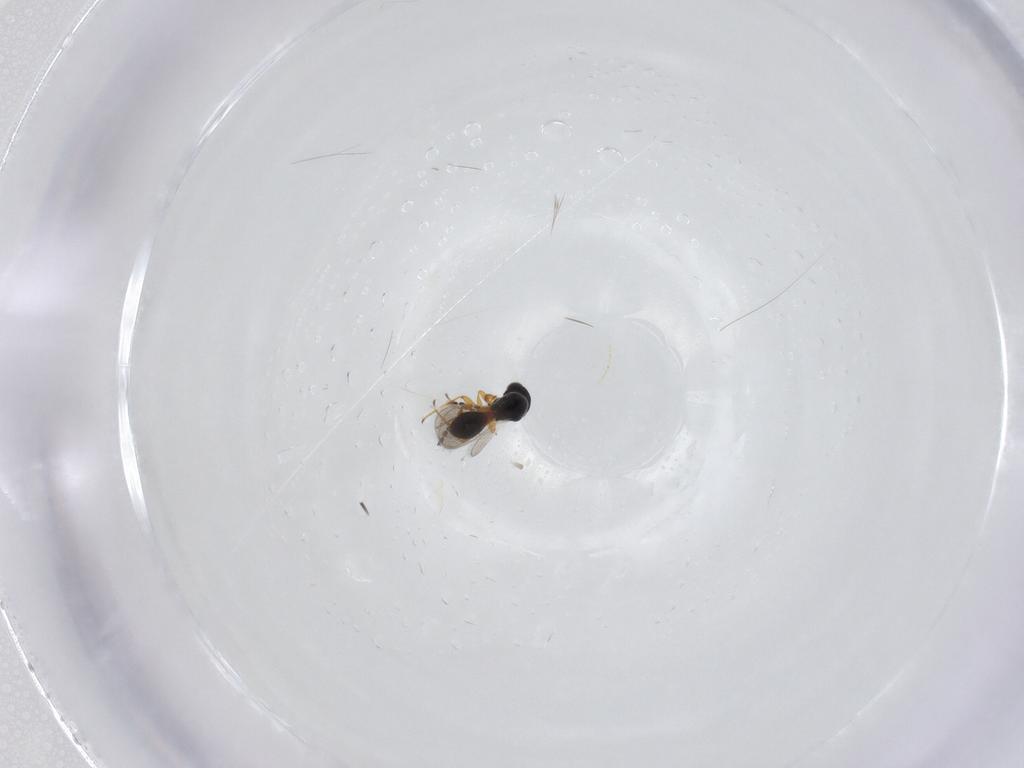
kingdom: Animalia
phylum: Arthropoda
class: Insecta
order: Hymenoptera
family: Platygastridae
